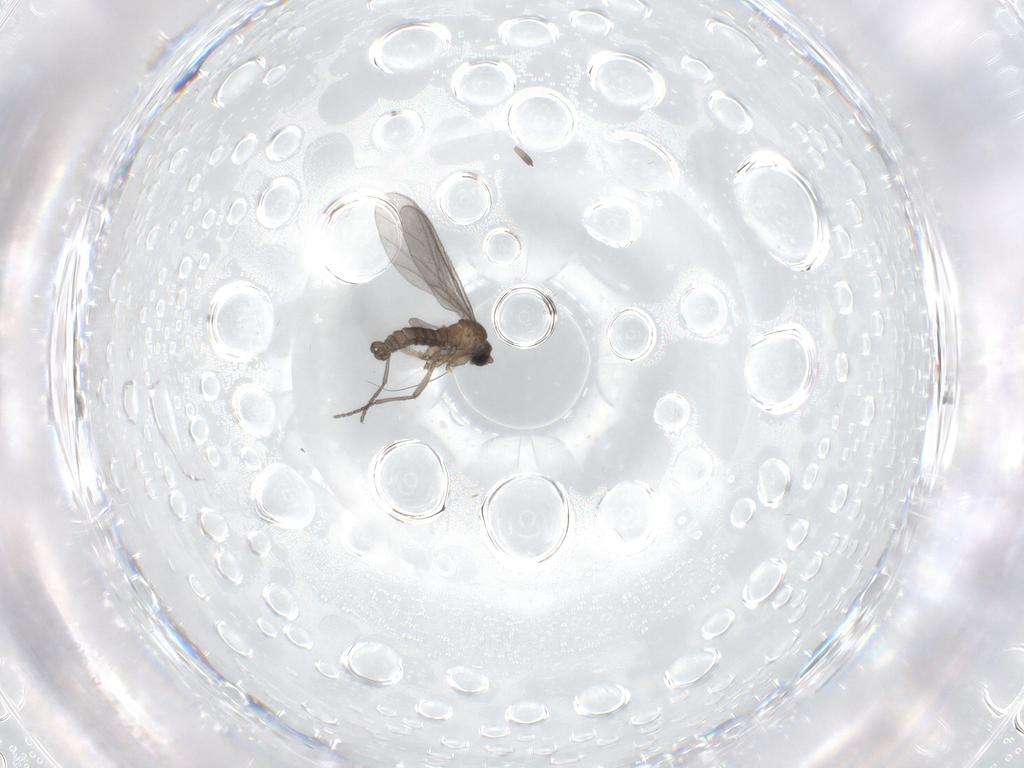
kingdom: Animalia
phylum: Arthropoda
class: Insecta
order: Diptera
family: Sciaridae
